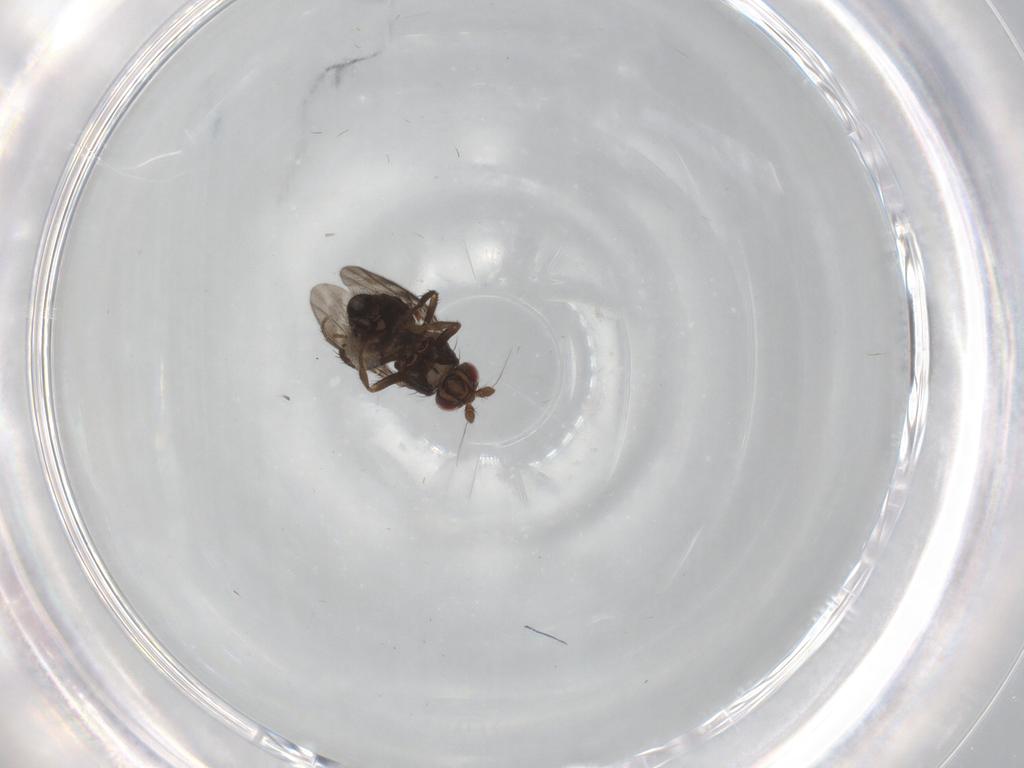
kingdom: Animalia
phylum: Arthropoda
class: Insecta
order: Diptera
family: Sphaeroceridae
